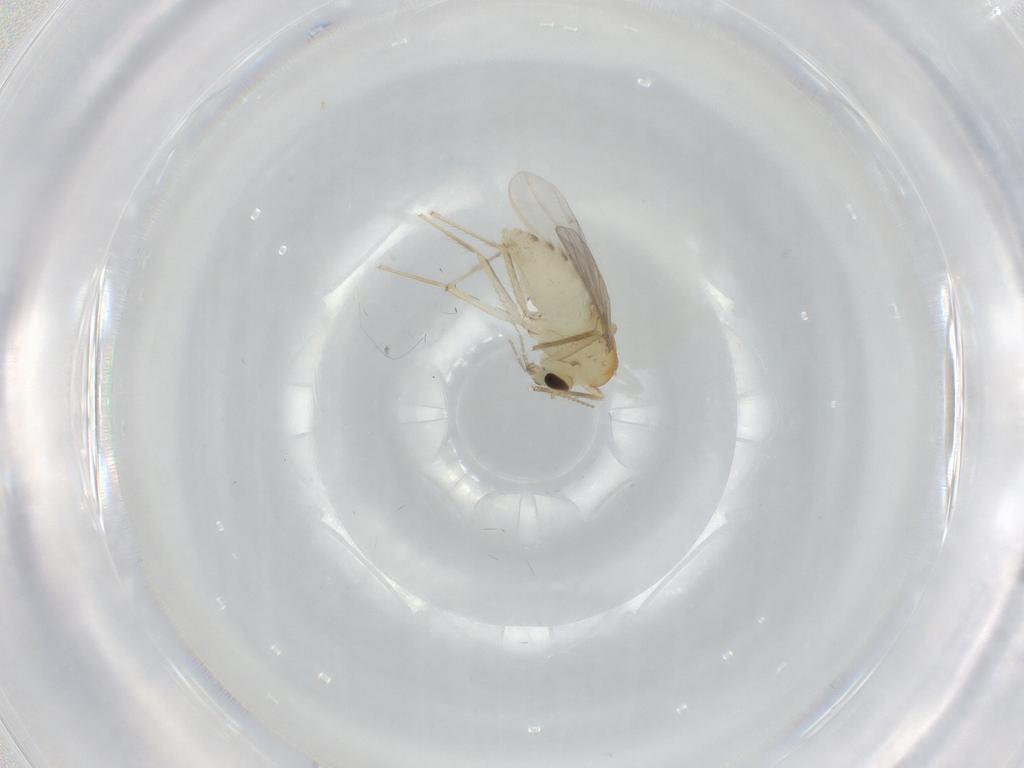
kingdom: Animalia
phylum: Arthropoda
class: Insecta
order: Diptera
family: Chironomidae
